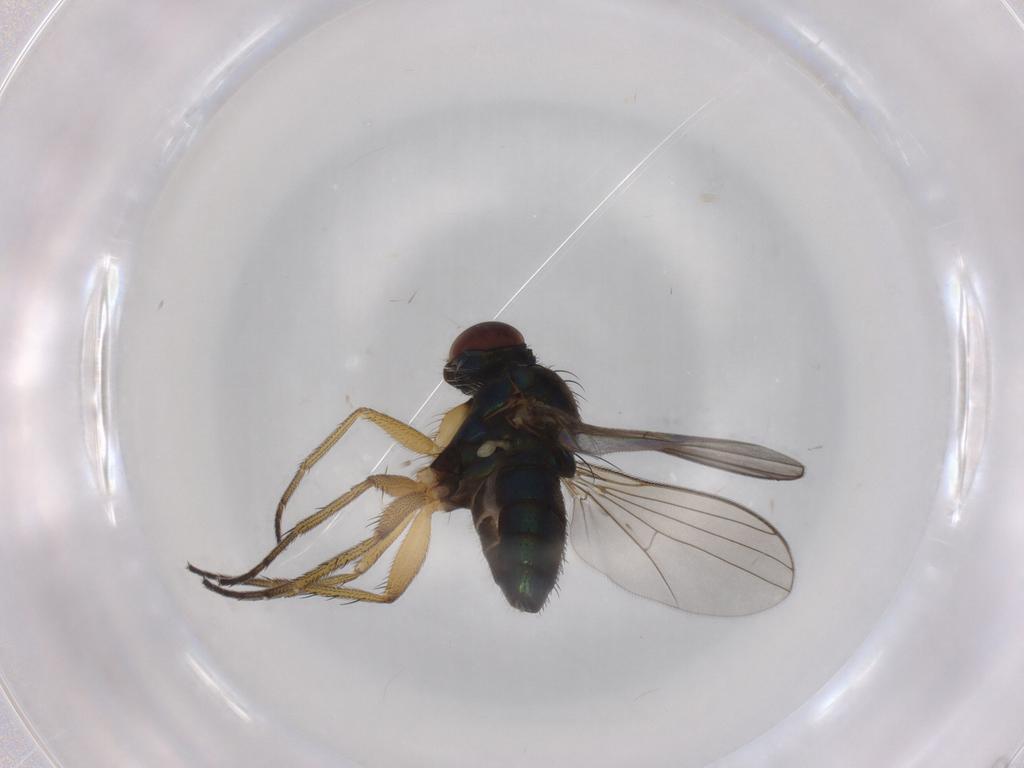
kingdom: Animalia
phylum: Arthropoda
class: Insecta
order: Diptera
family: Dolichopodidae
